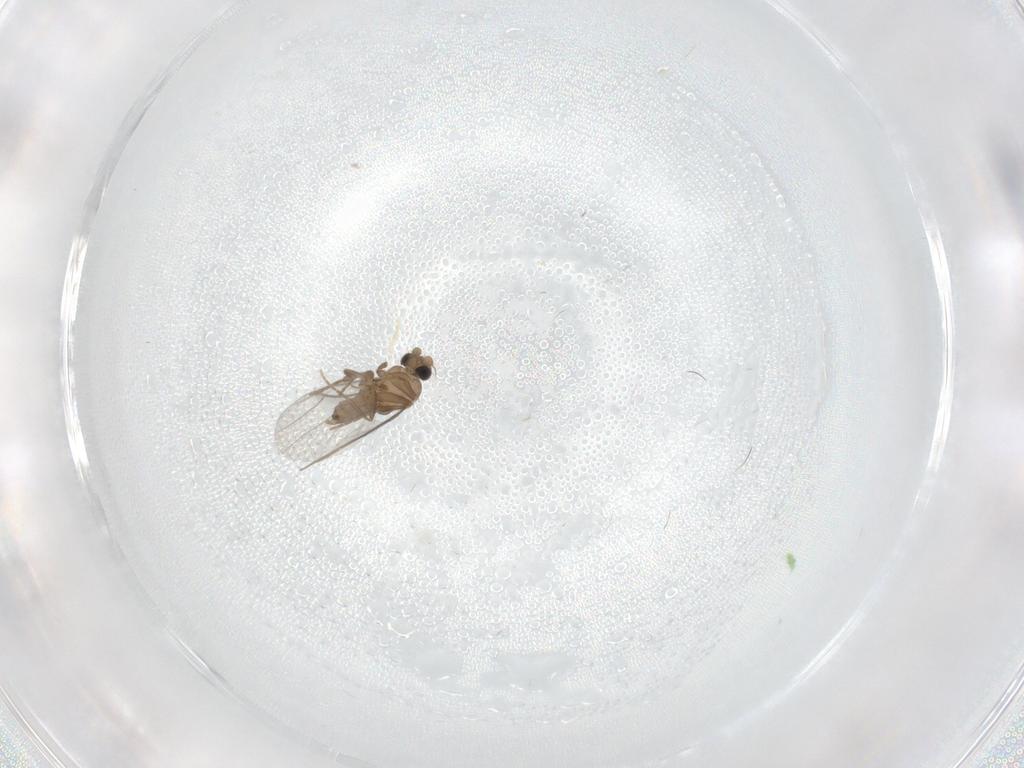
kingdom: Animalia
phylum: Arthropoda
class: Insecta
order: Diptera
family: Psychodidae
